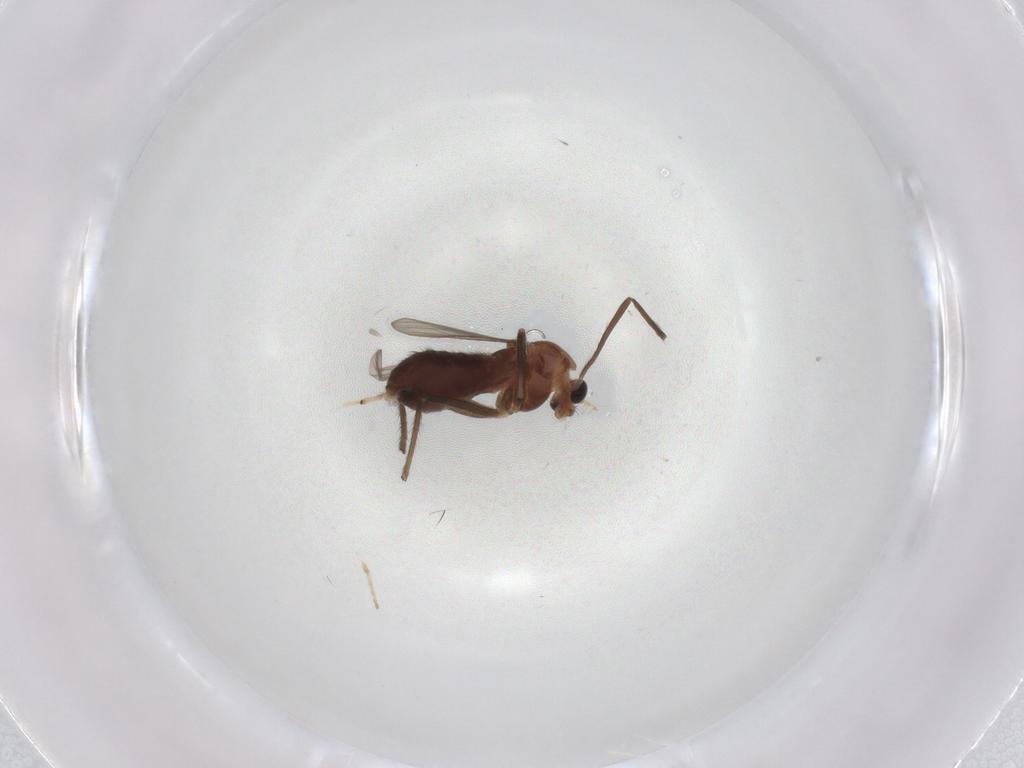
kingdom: Animalia
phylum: Arthropoda
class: Insecta
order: Diptera
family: Chironomidae
